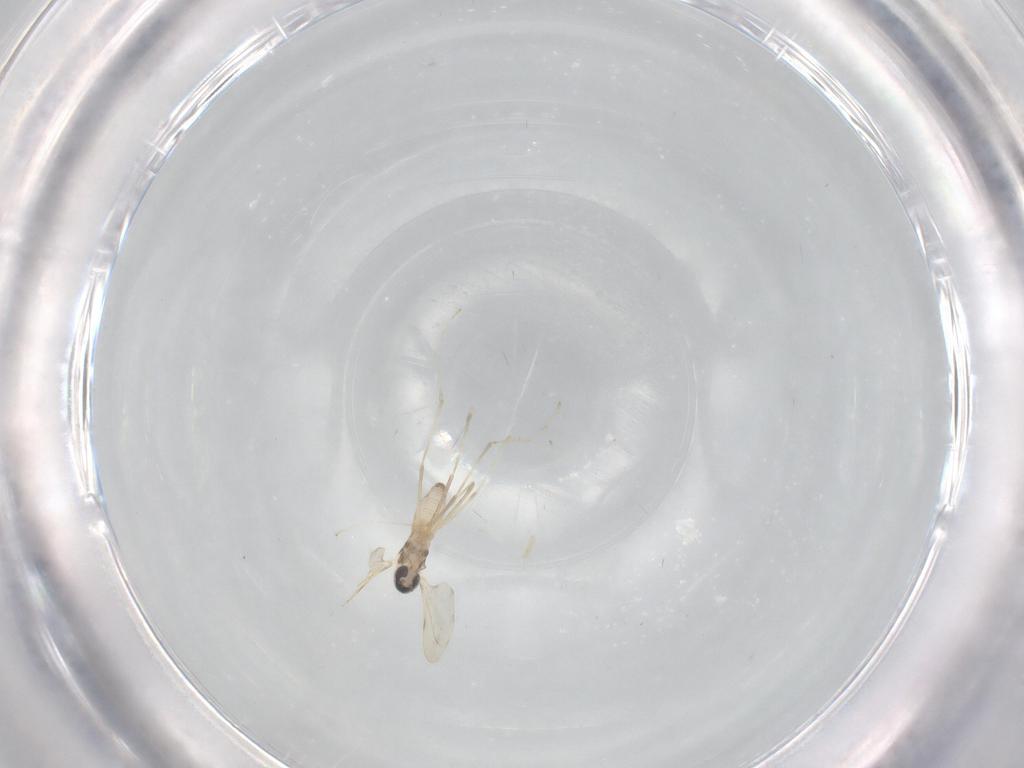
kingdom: Animalia
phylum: Arthropoda
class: Insecta
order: Diptera
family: Cecidomyiidae
